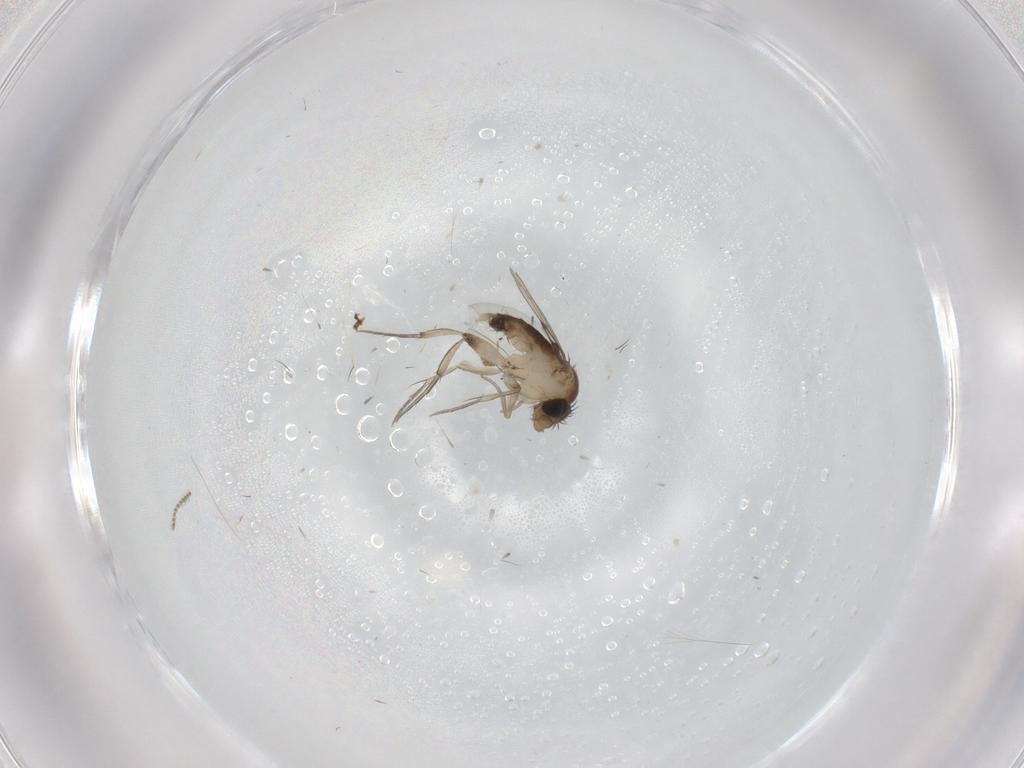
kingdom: Animalia
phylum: Arthropoda
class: Insecta
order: Diptera
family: Phoridae
